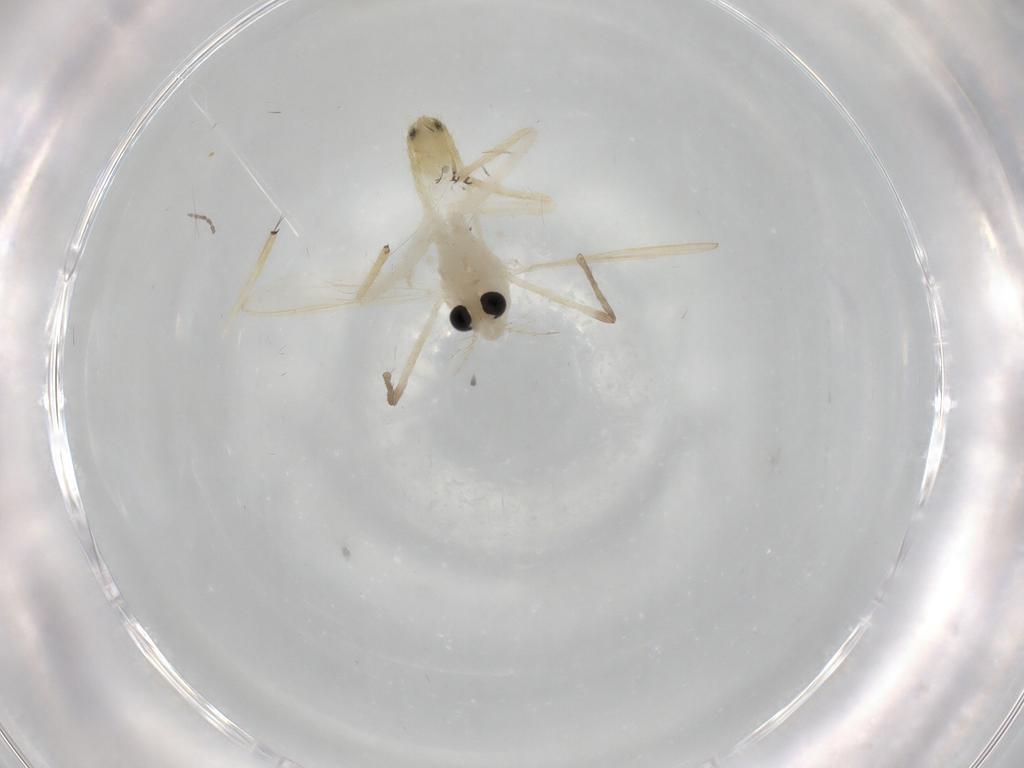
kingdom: Animalia
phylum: Arthropoda
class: Insecta
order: Diptera
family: Chironomidae
